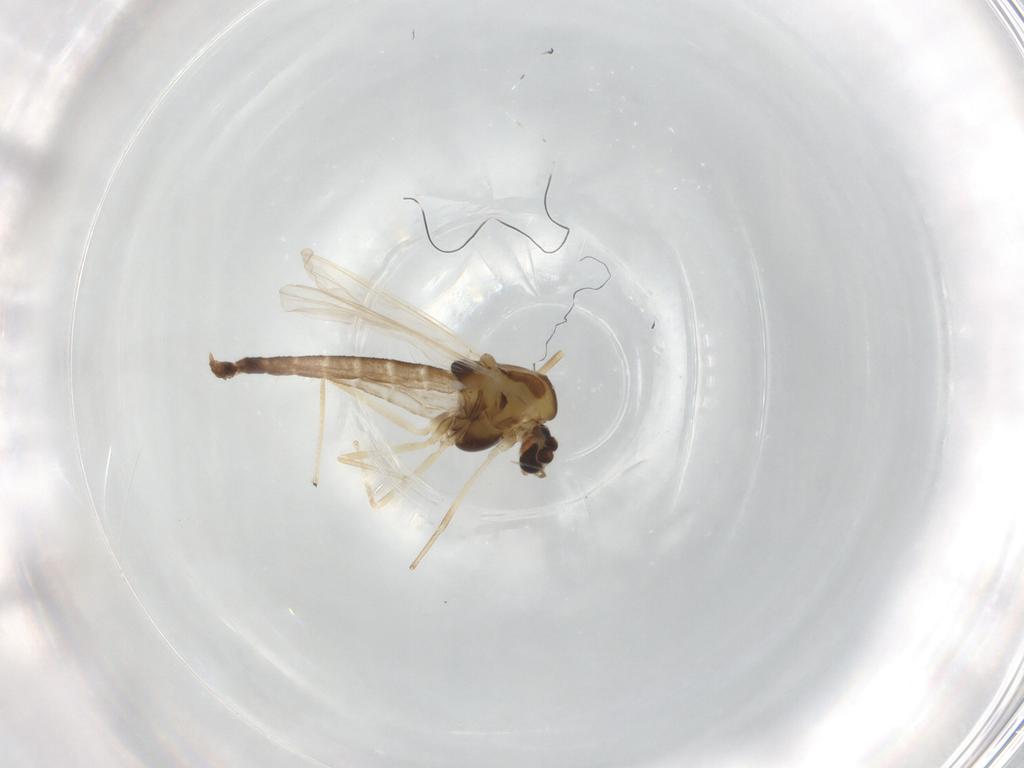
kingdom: Animalia
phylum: Arthropoda
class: Insecta
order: Diptera
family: Chironomidae
